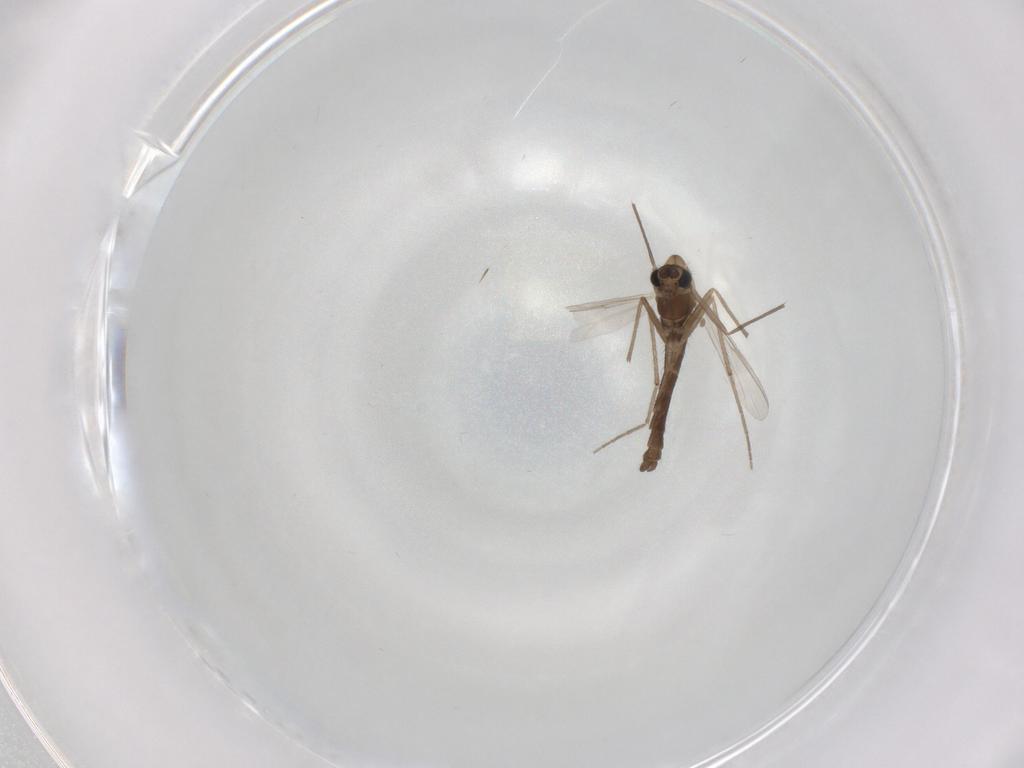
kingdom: Animalia
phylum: Arthropoda
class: Insecta
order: Diptera
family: Chironomidae
